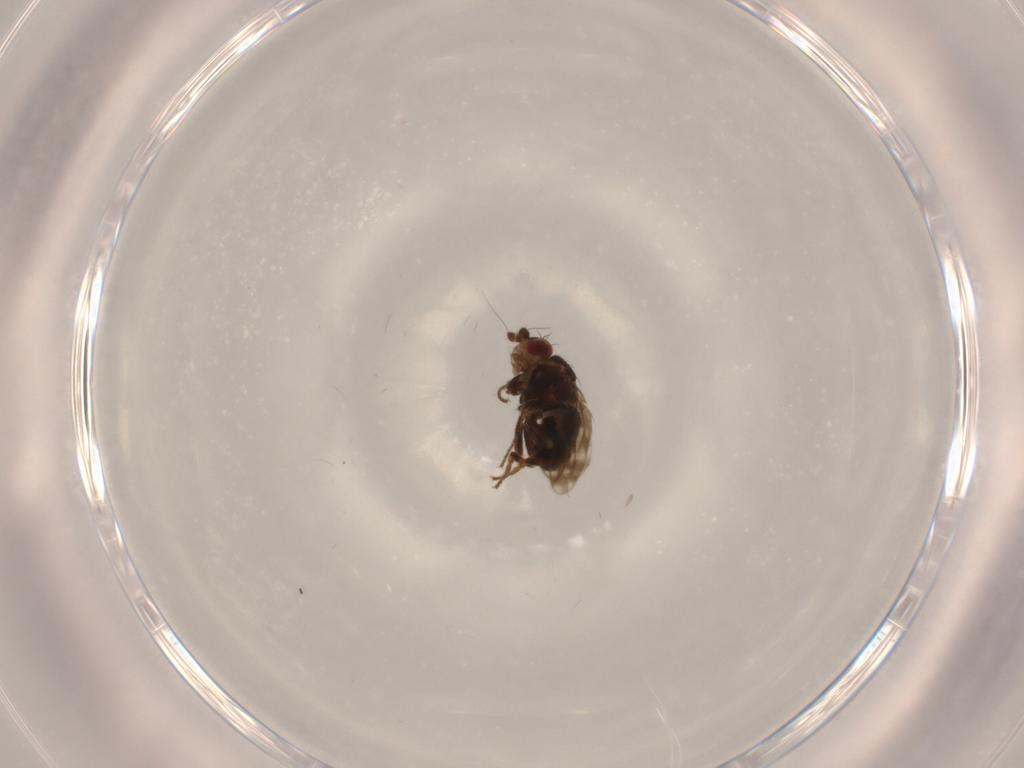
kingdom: Animalia
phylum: Arthropoda
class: Insecta
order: Diptera
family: Sphaeroceridae
